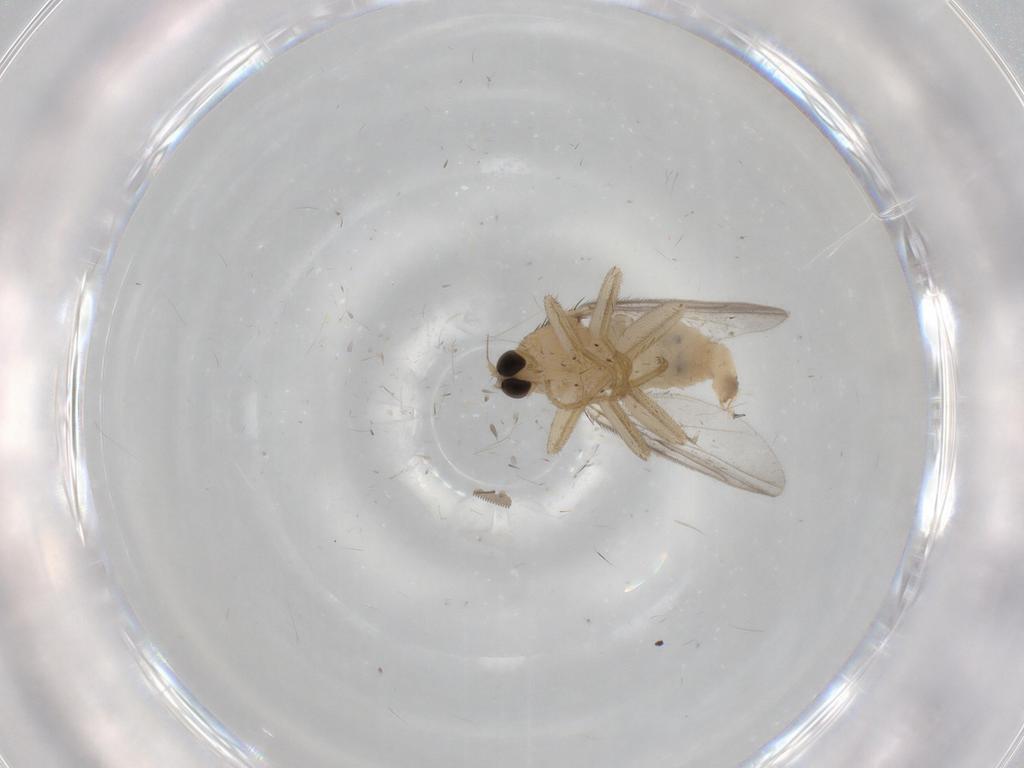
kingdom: Animalia
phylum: Arthropoda
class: Insecta
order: Diptera
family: Hybotidae
